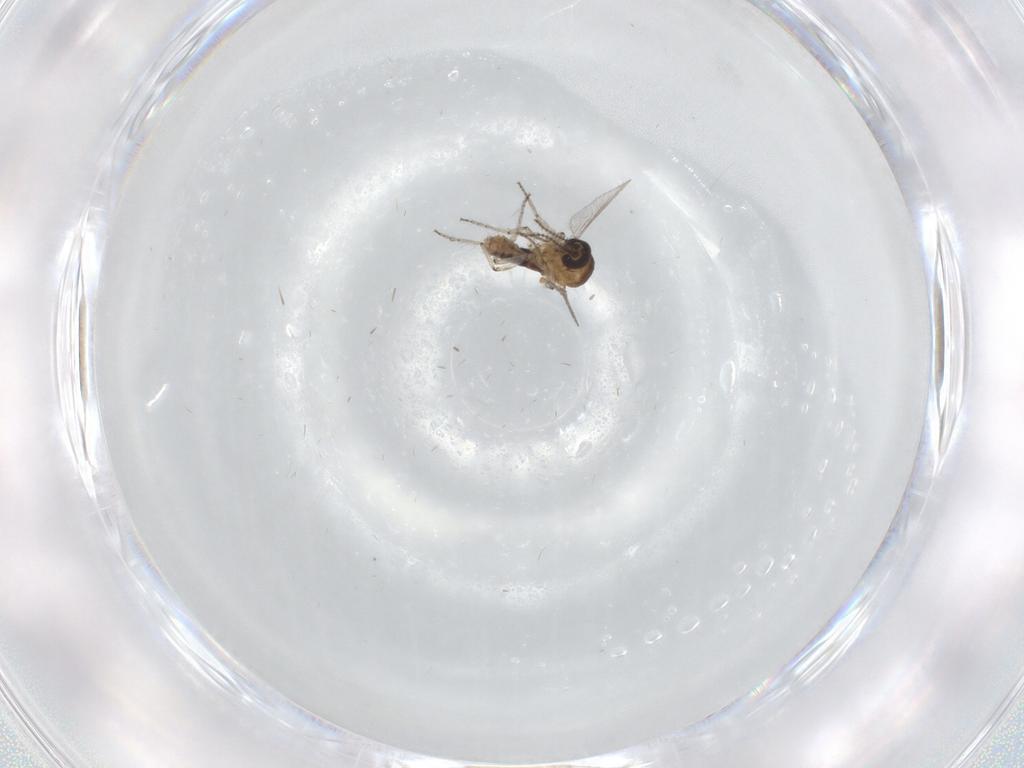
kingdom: Animalia
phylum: Arthropoda
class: Insecta
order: Diptera
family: Ceratopogonidae
